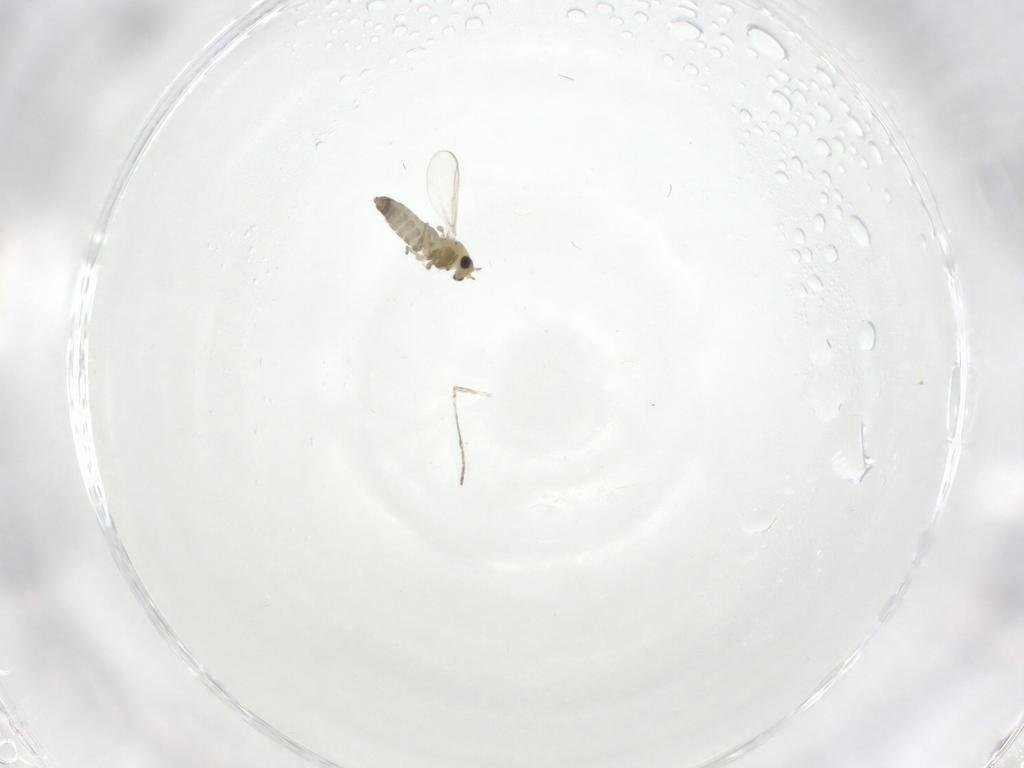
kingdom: Animalia
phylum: Arthropoda
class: Insecta
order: Diptera
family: Chironomidae
